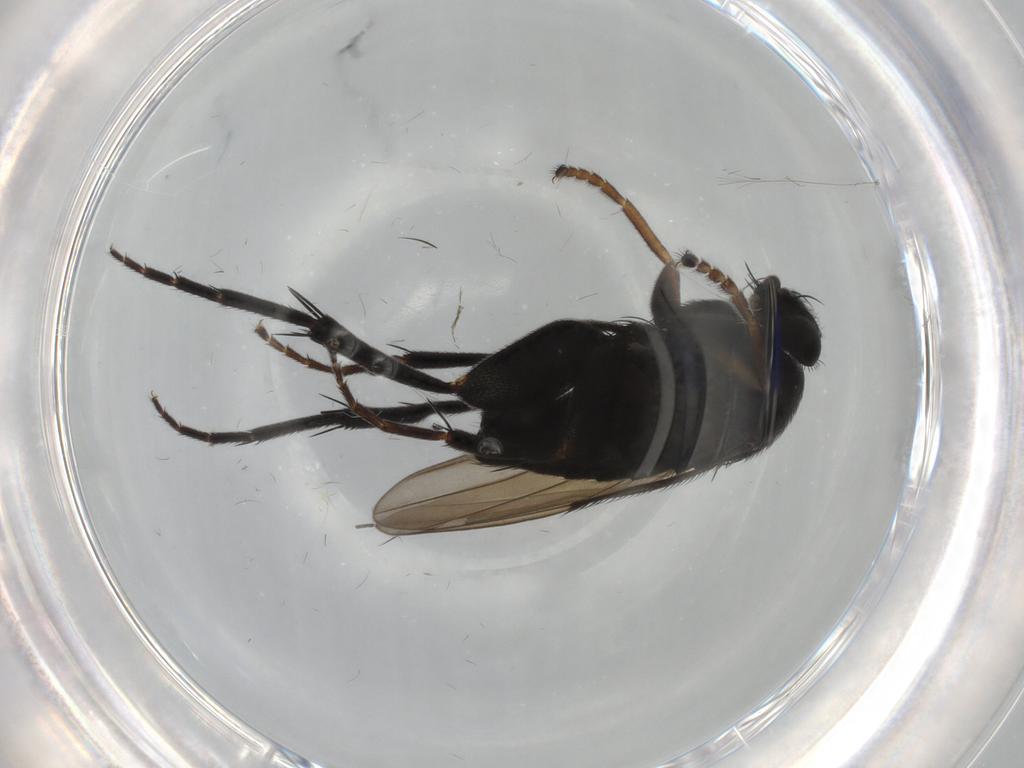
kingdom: Animalia
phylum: Arthropoda
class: Insecta
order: Diptera
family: Phoridae
